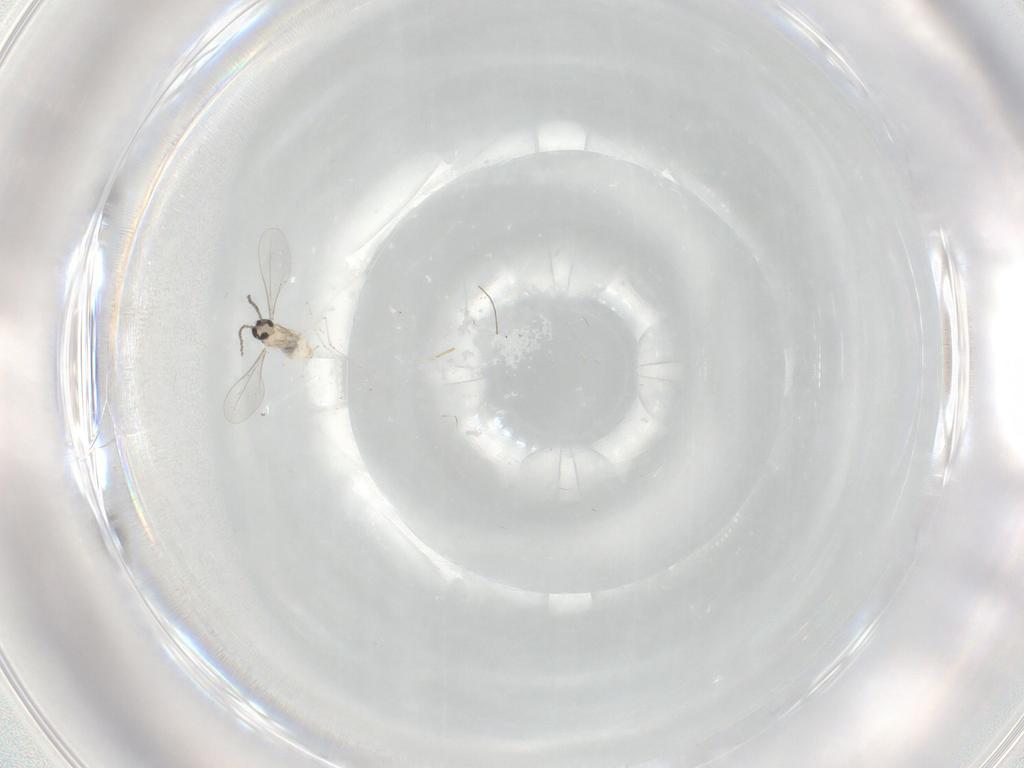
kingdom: Animalia
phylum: Arthropoda
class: Insecta
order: Diptera
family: Cecidomyiidae
